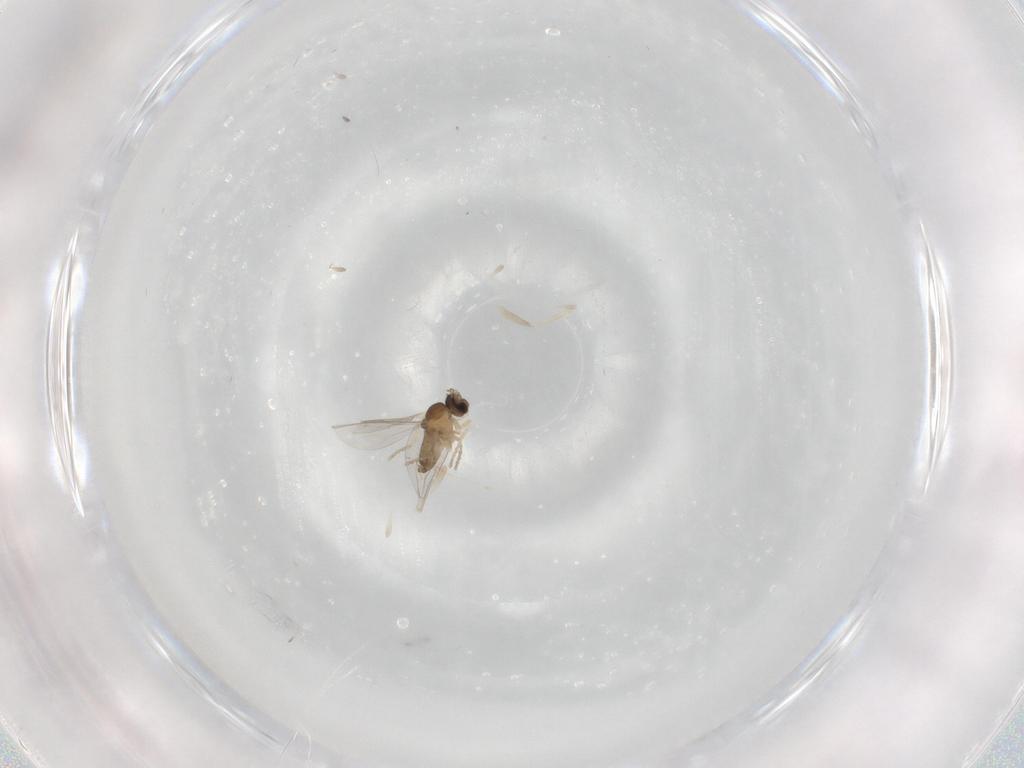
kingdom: Animalia
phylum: Arthropoda
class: Insecta
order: Diptera
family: Cecidomyiidae
